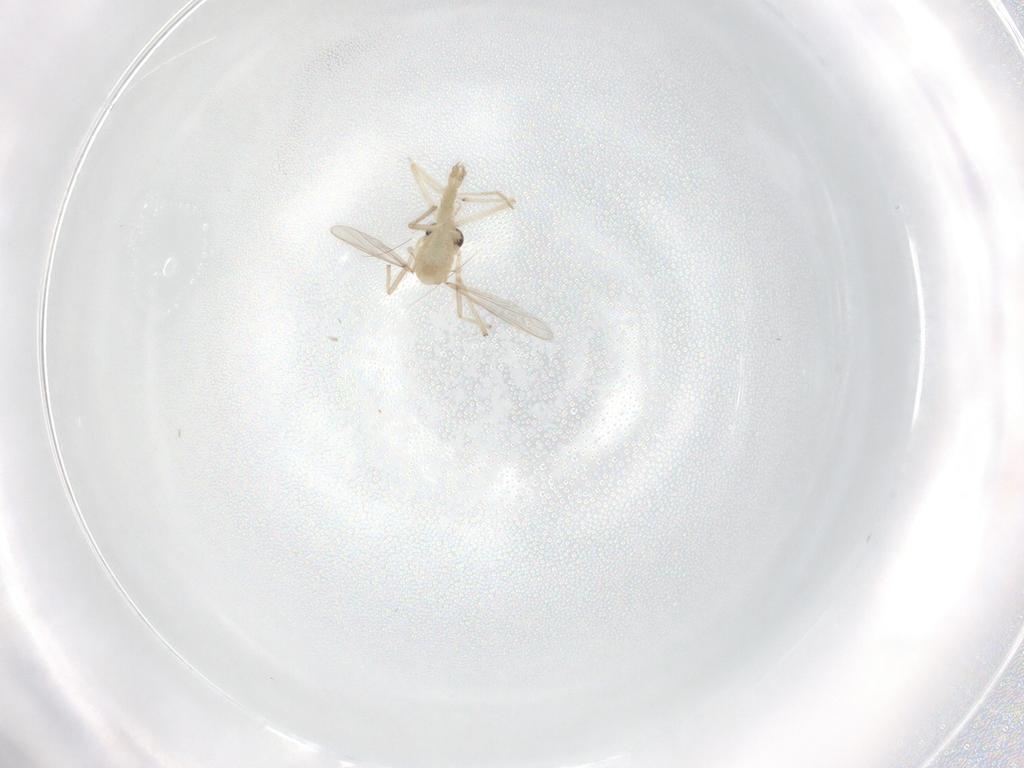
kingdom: Animalia
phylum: Arthropoda
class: Insecta
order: Diptera
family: Chironomidae
